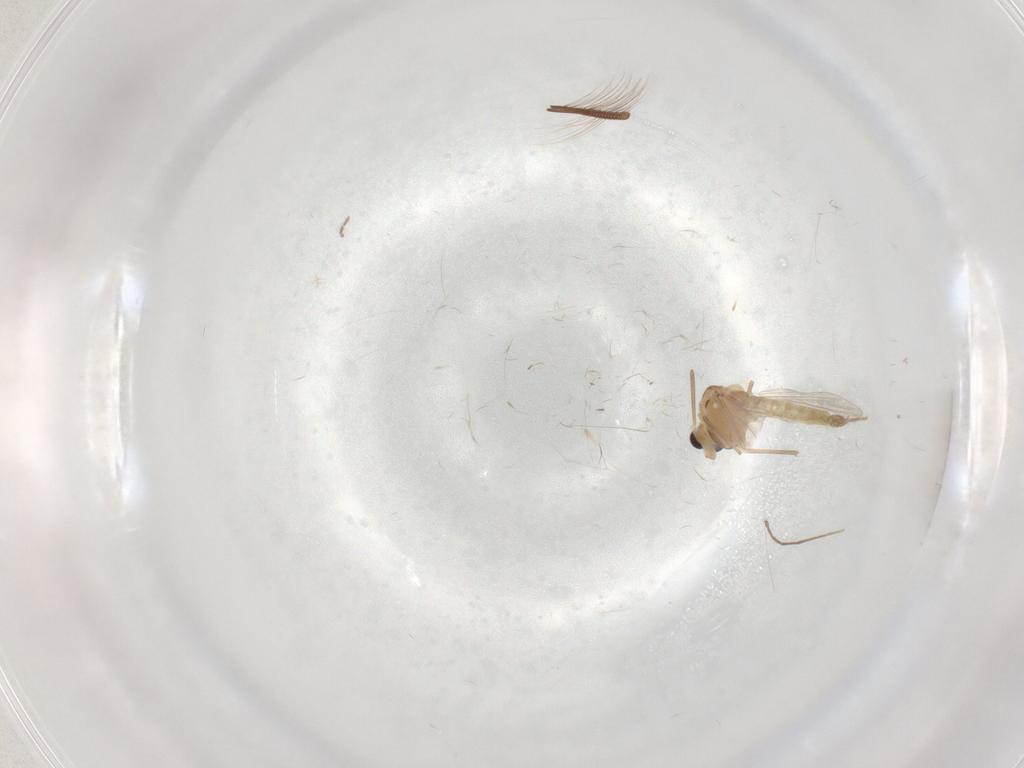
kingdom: Animalia
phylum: Arthropoda
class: Insecta
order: Diptera
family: Chironomidae
